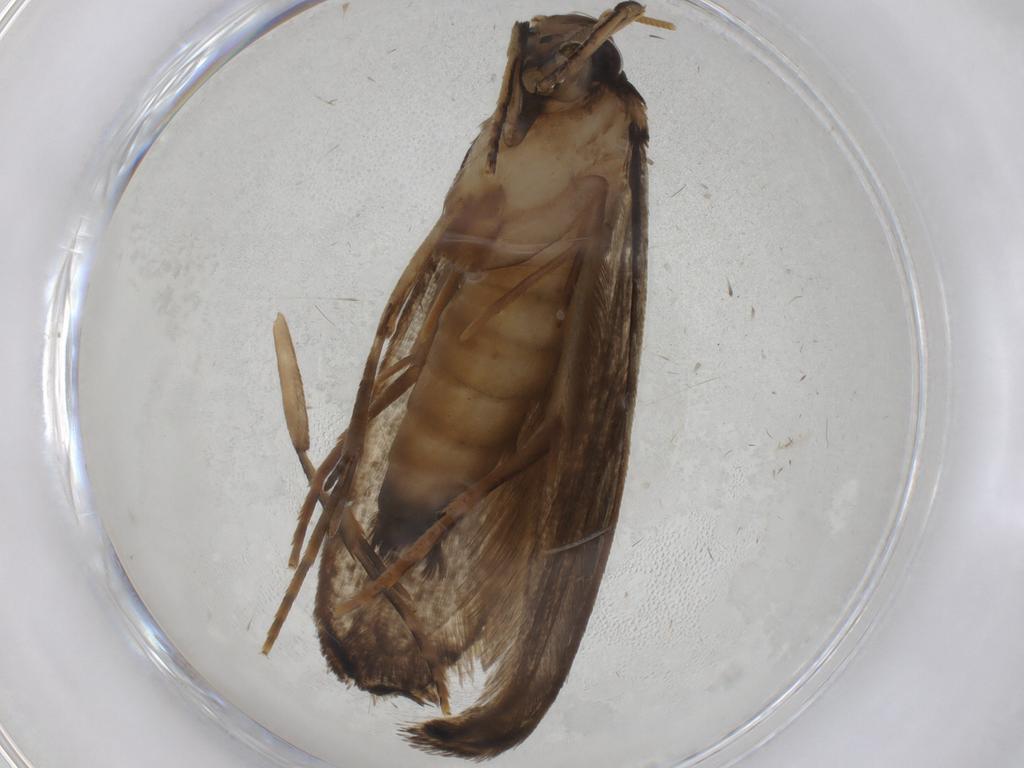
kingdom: Animalia
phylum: Arthropoda
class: Insecta
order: Lepidoptera
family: Tineidae
